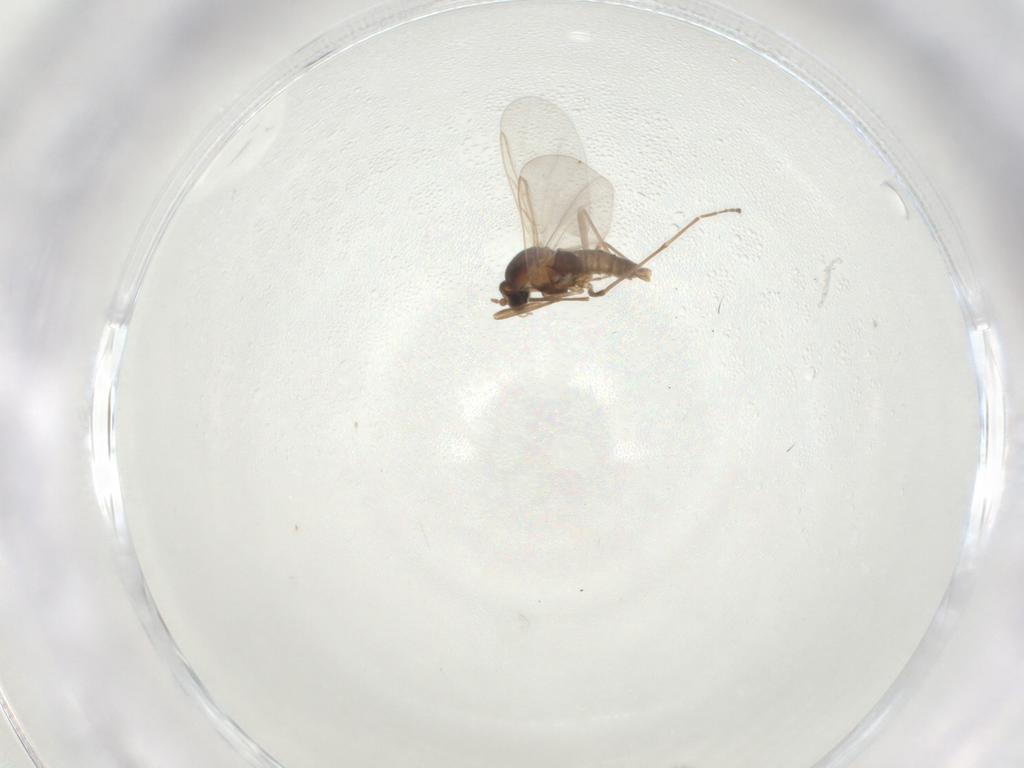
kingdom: Animalia
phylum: Arthropoda
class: Insecta
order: Diptera
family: Cecidomyiidae
